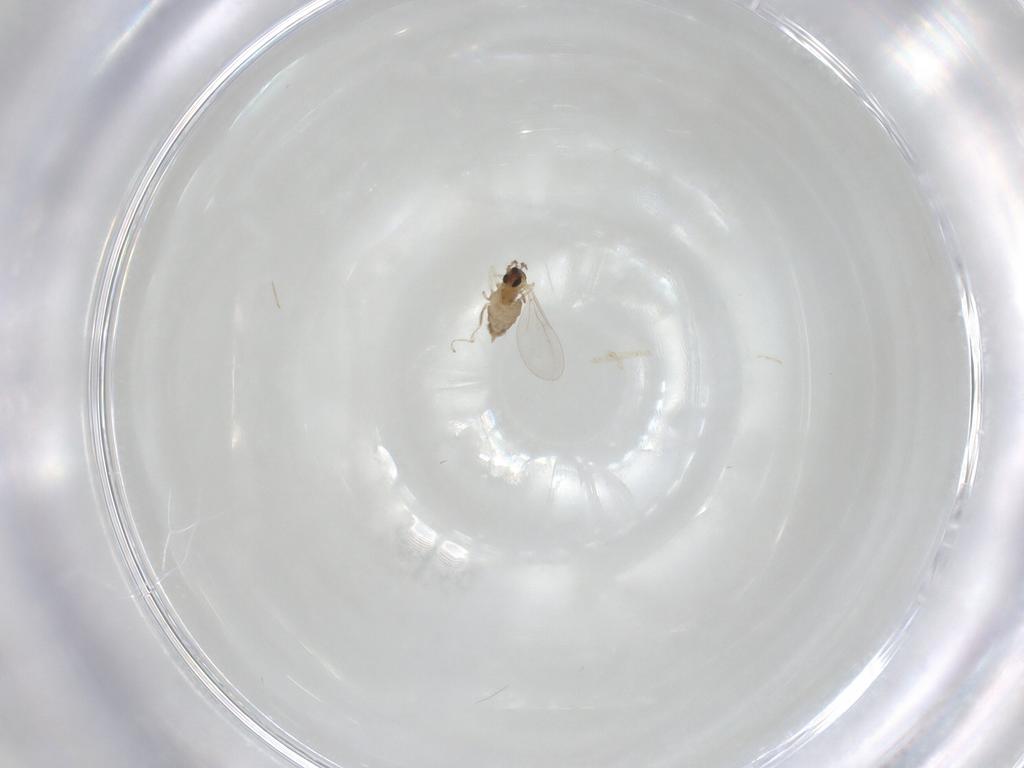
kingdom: Animalia
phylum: Arthropoda
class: Insecta
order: Diptera
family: Cecidomyiidae
